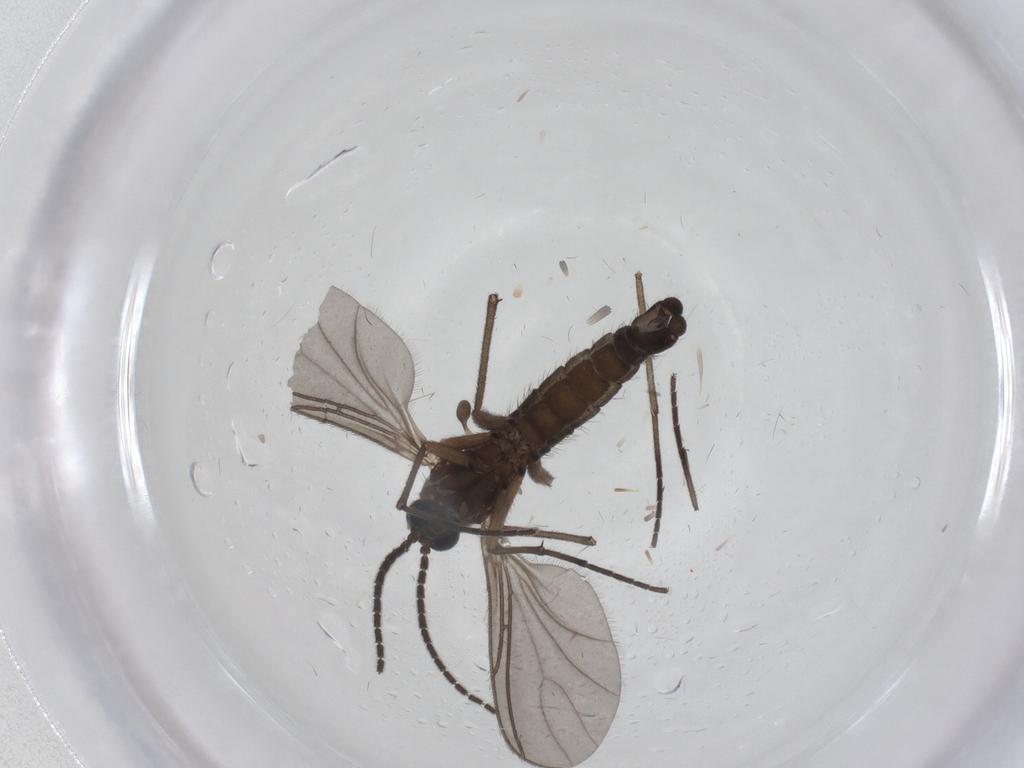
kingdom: Animalia
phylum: Arthropoda
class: Insecta
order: Diptera
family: Sciaridae
